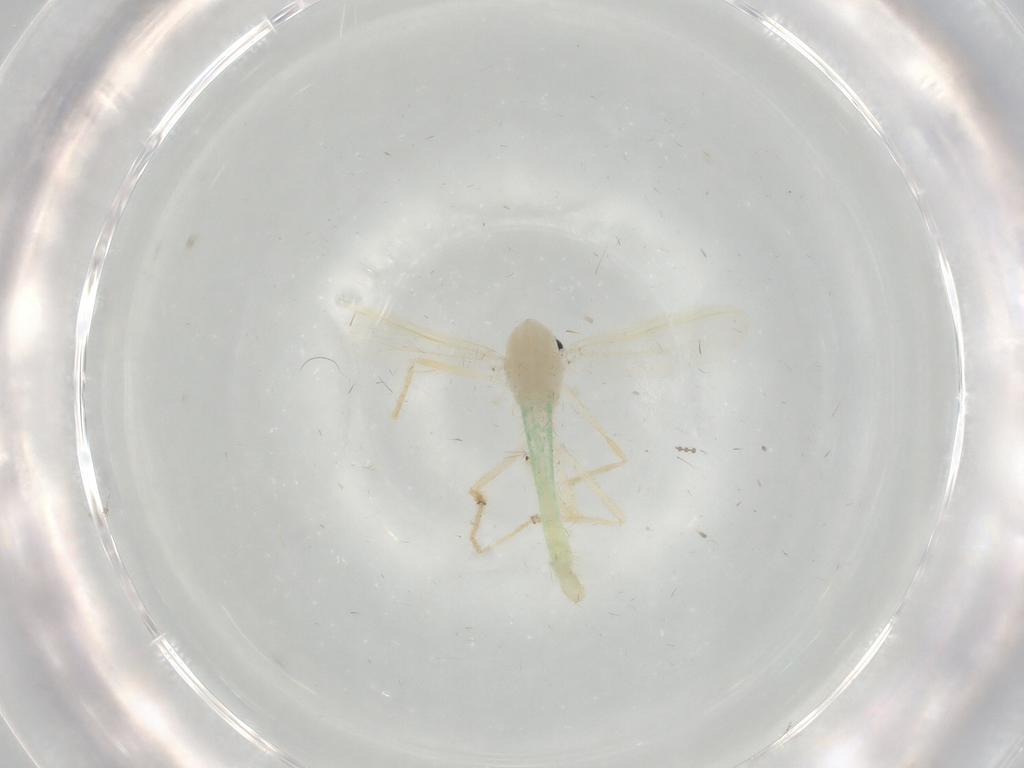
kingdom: Animalia
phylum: Arthropoda
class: Insecta
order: Diptera
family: Chironomidae
